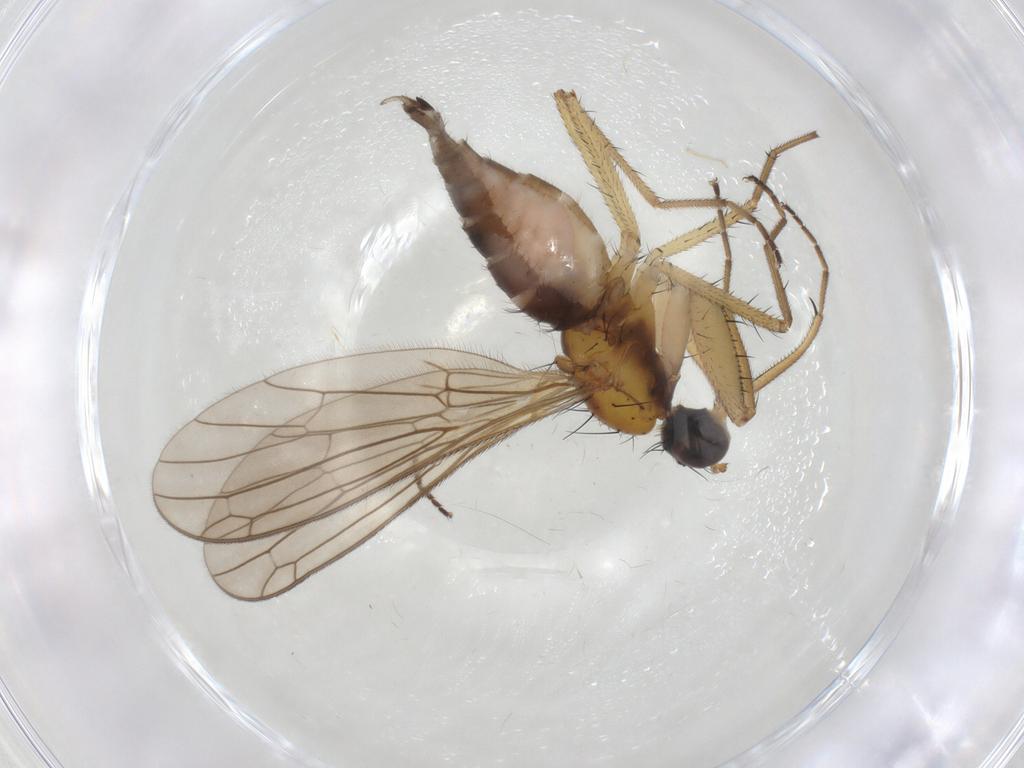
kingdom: Animalia
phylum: Arthropoda
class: Insecta
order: Diptera
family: Empididae
